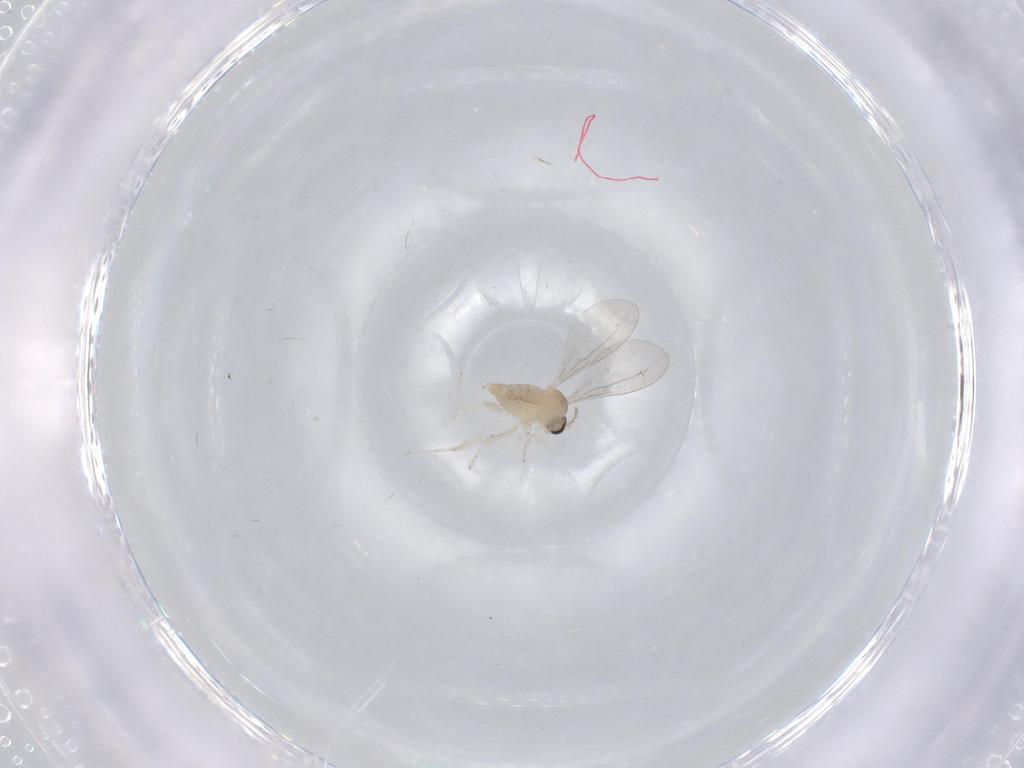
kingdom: Animalia
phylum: Arthropoda
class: Insecta
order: Diptera
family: Cecidomyiidae
